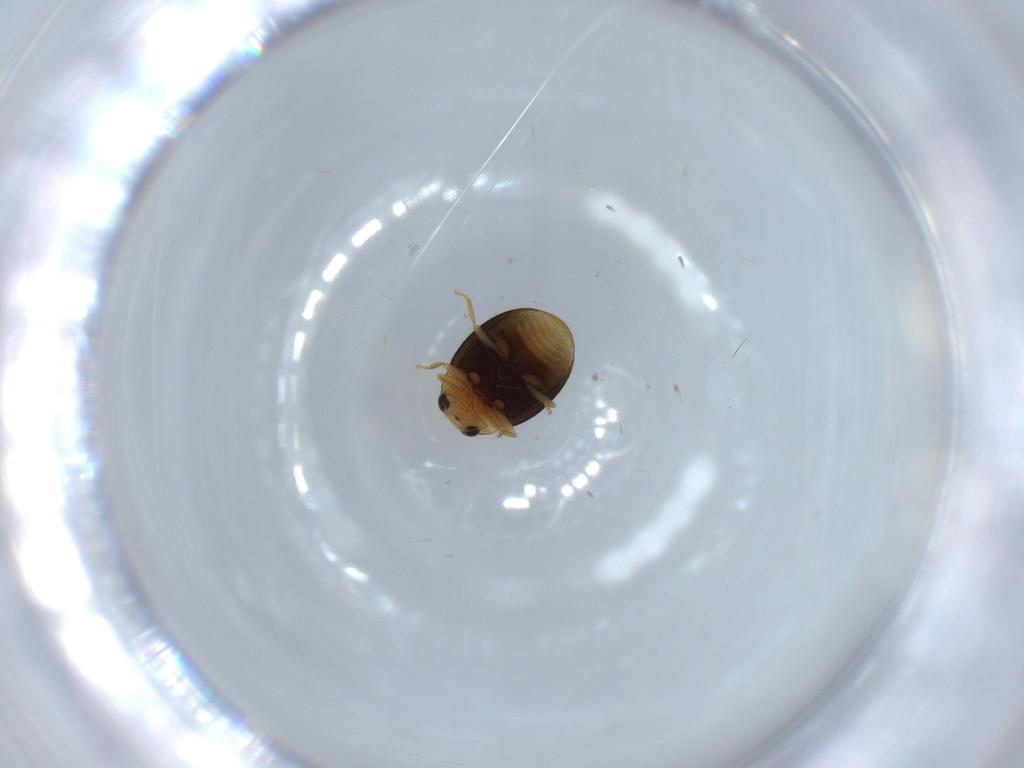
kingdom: Animalia
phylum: Arthropoda
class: Insecta
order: Coleoptera
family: Coccinellidae
